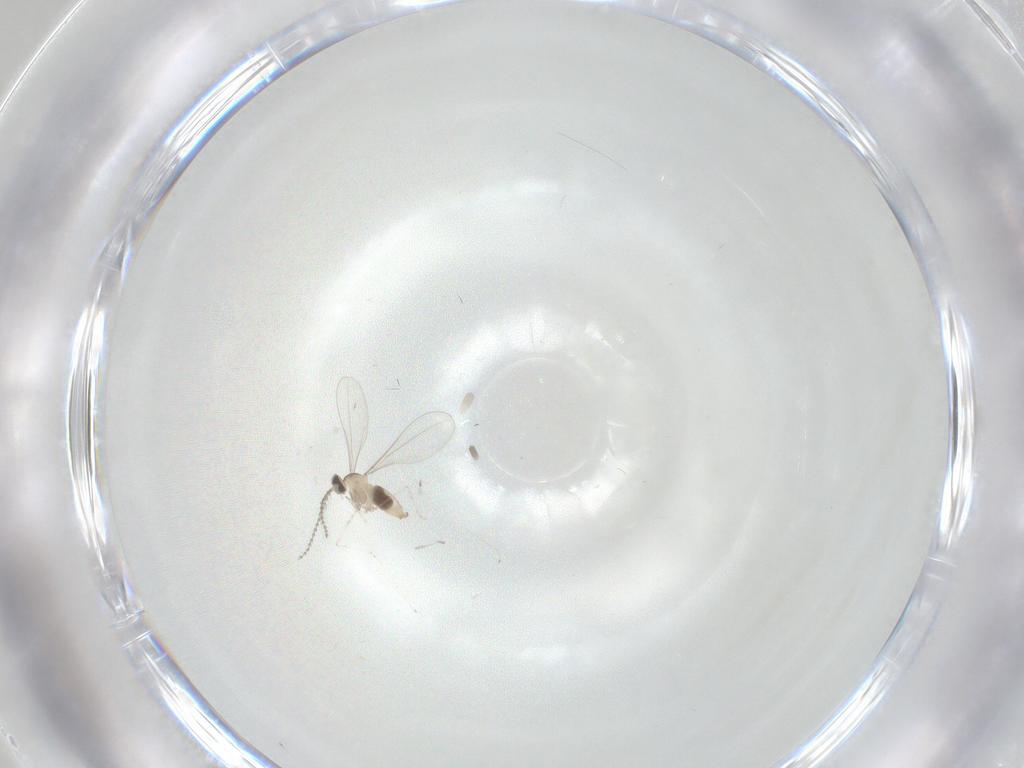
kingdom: Animalia
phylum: Arthropoda
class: Insecta
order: Diptera
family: Cecidomyiidae
